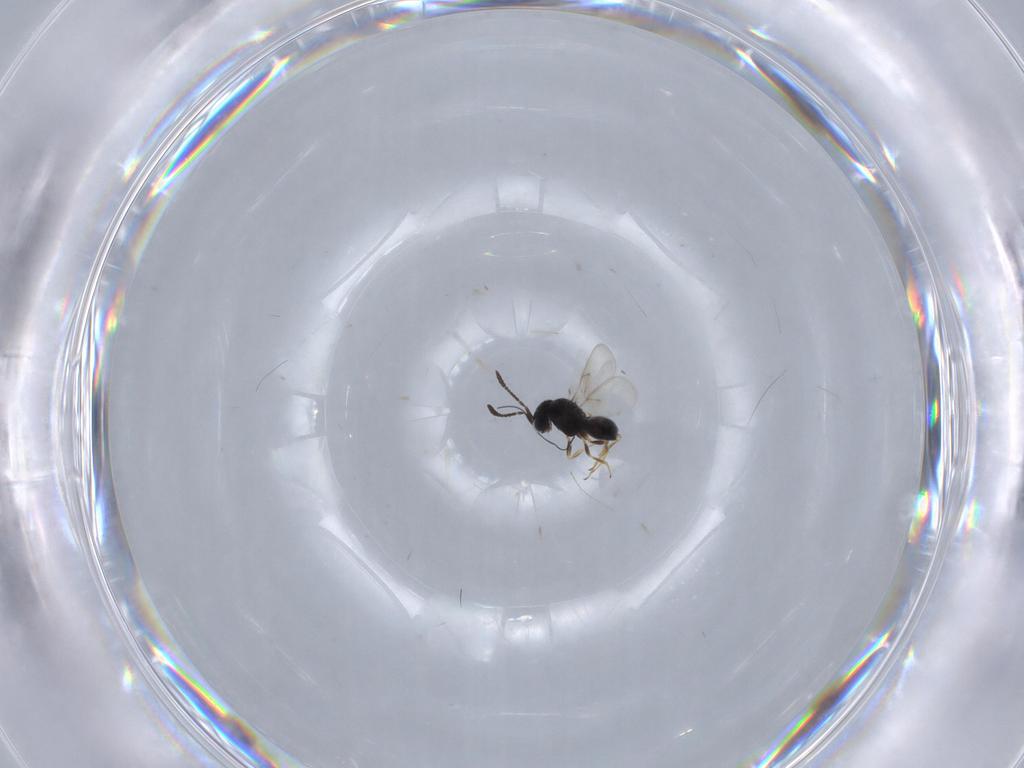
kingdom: Animalia
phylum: Arthropoda
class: Insecta
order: Hymenoptera
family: Scelionidae
